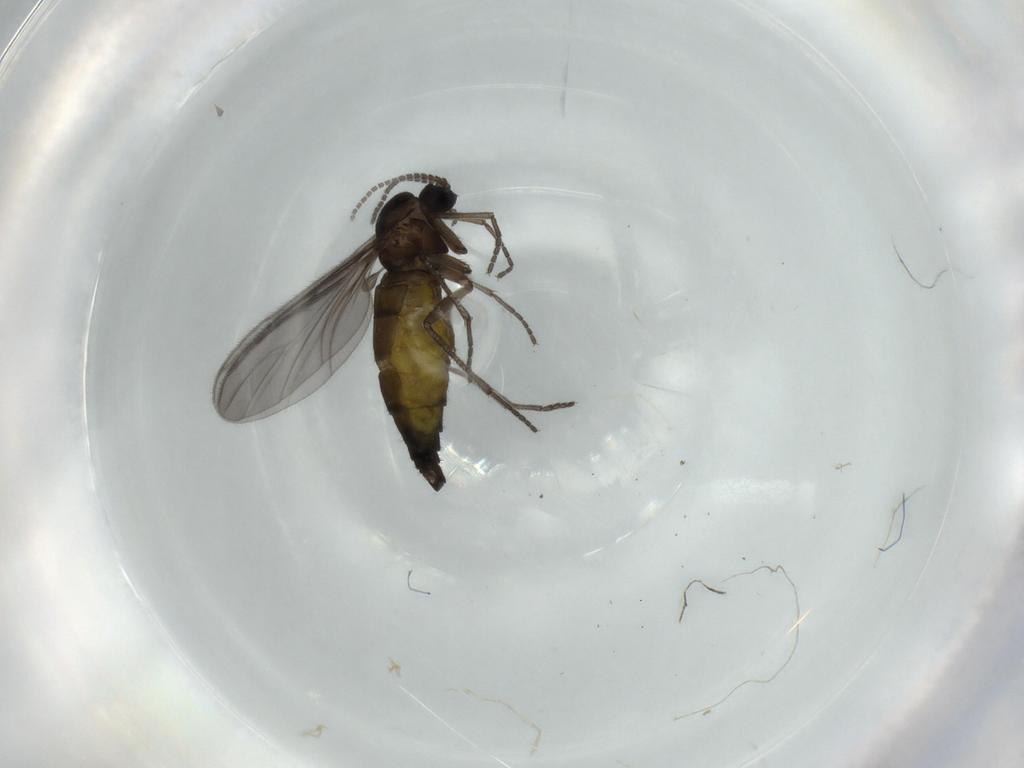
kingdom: Animalia
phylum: Arthropoda
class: Insecta
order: Diptera
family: Sciaridae
